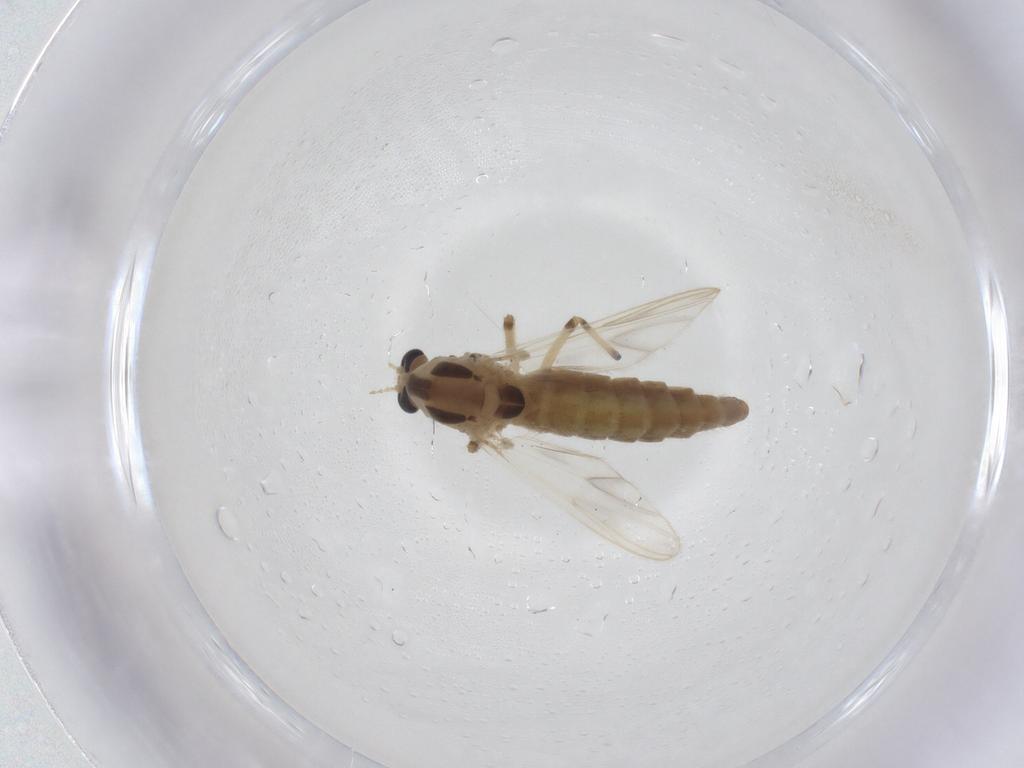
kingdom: Animalia
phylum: Arthropoda
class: Insecta
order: Diptera
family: Chironomidae
